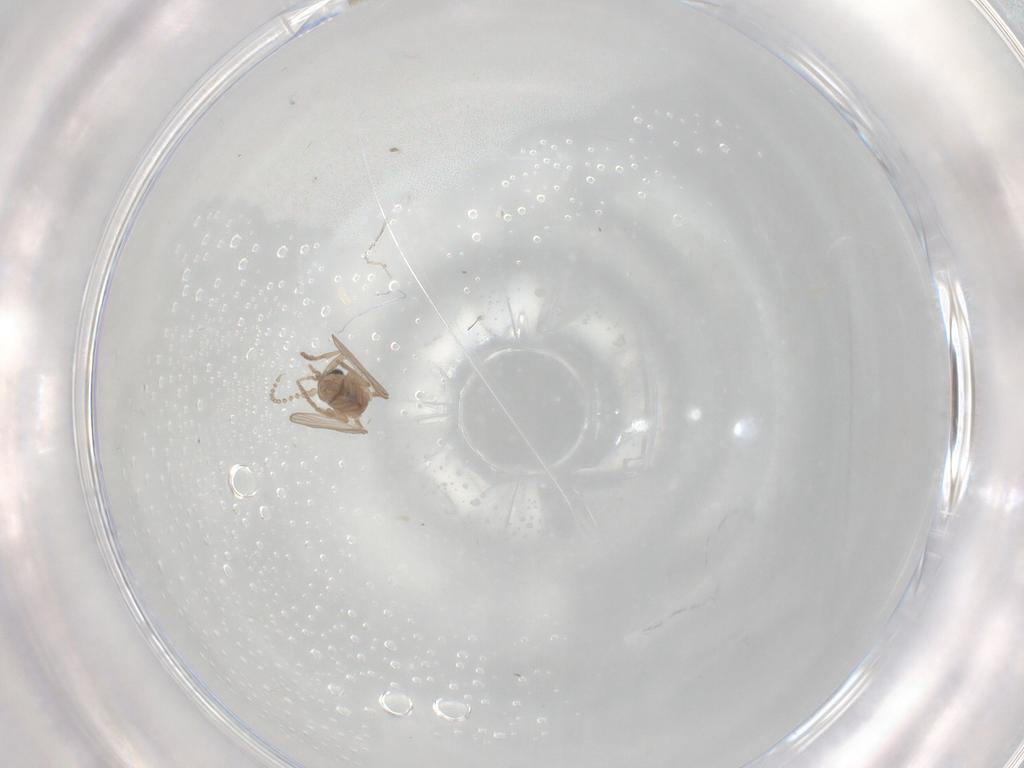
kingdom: Animalia
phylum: Arthropoda
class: Insecta
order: Diptera
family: Psychodidae
